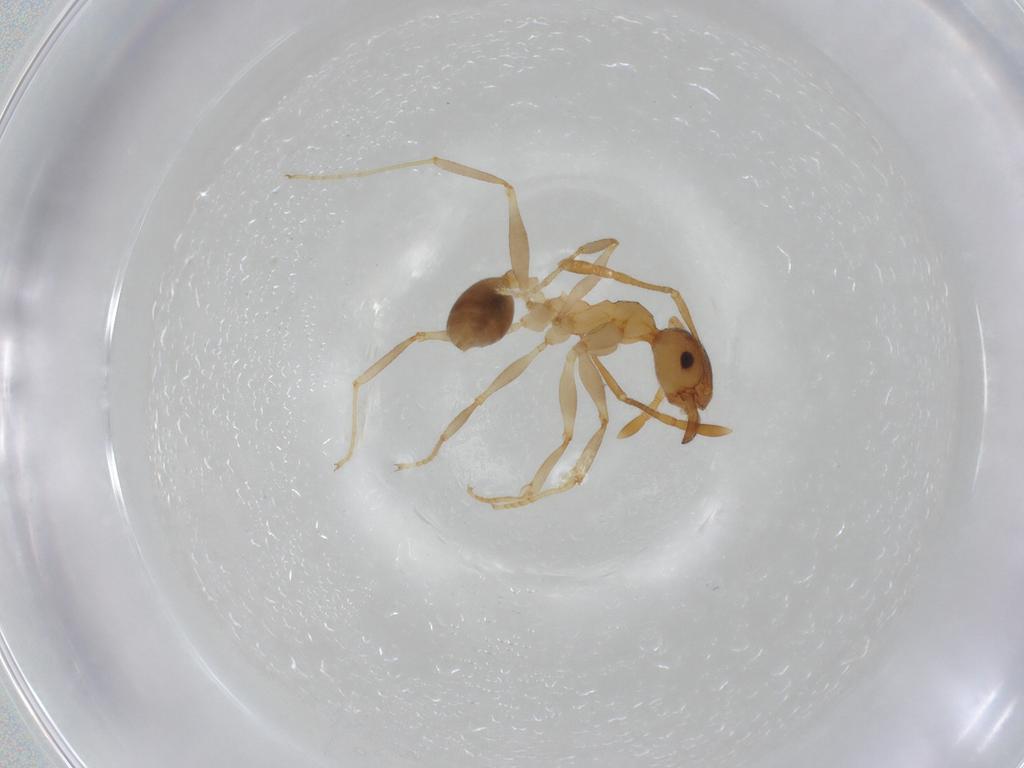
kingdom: Animalia
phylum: Arthropoda
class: Insecta
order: Hymenoptera
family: Formicidae
